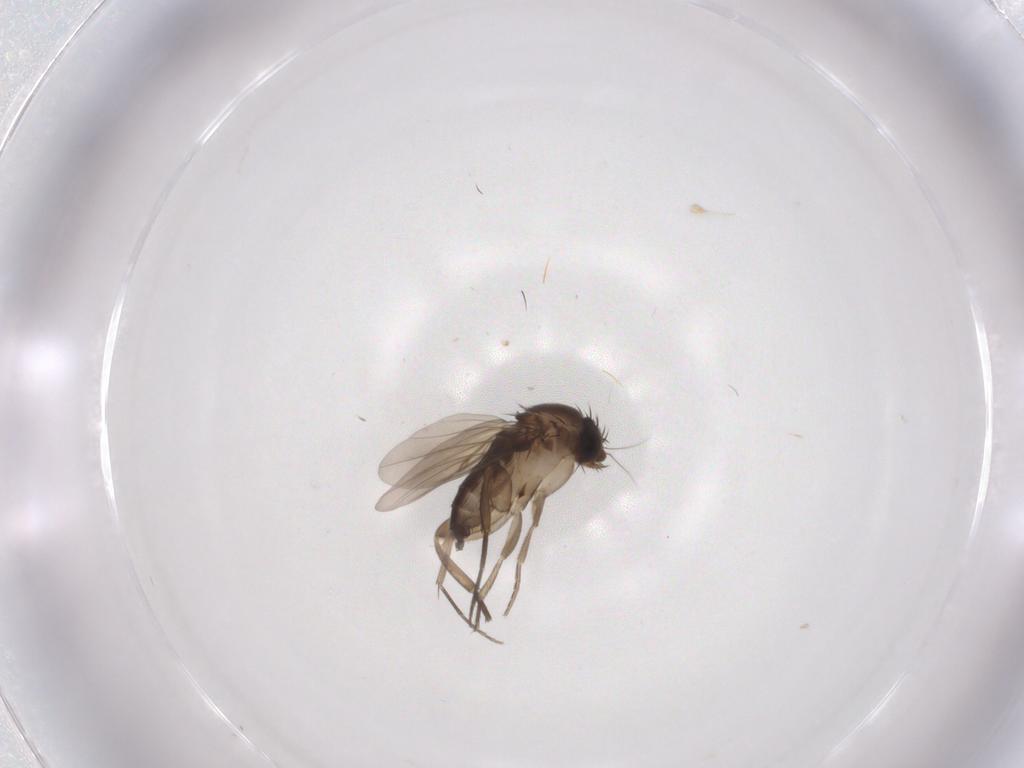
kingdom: Animalia
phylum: Arthropoda
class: Insecta
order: Diptera
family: Phoridae
